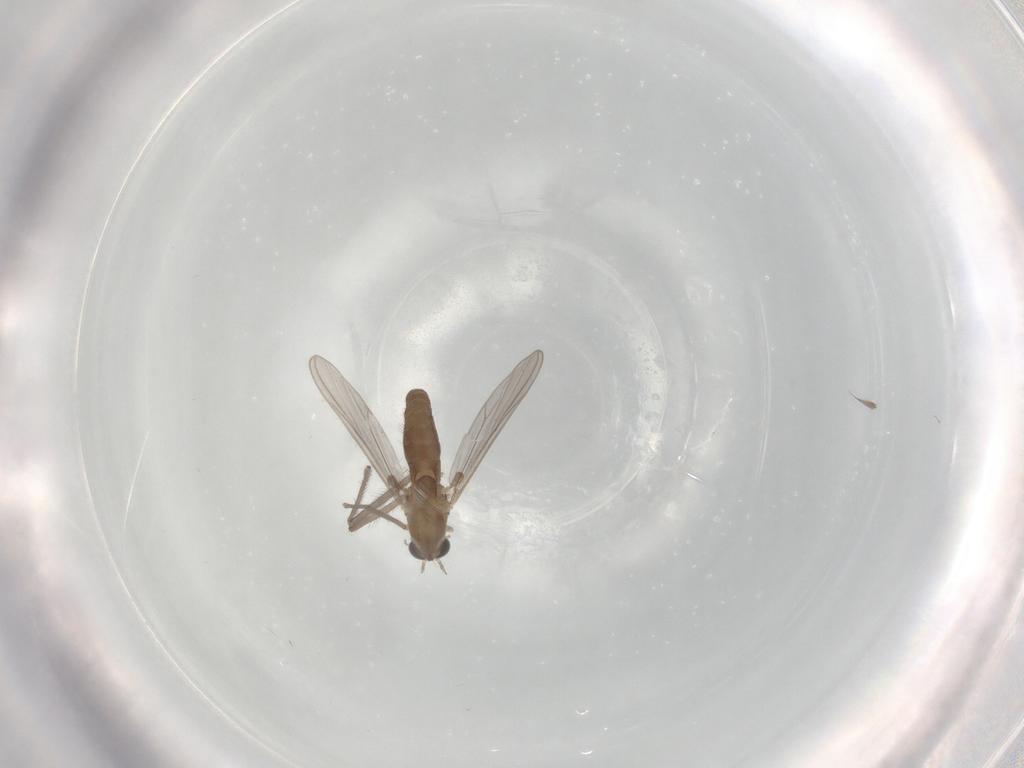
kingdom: Animalia
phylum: Arthropoda
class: Insecta
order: Diptera
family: Chironomidae
